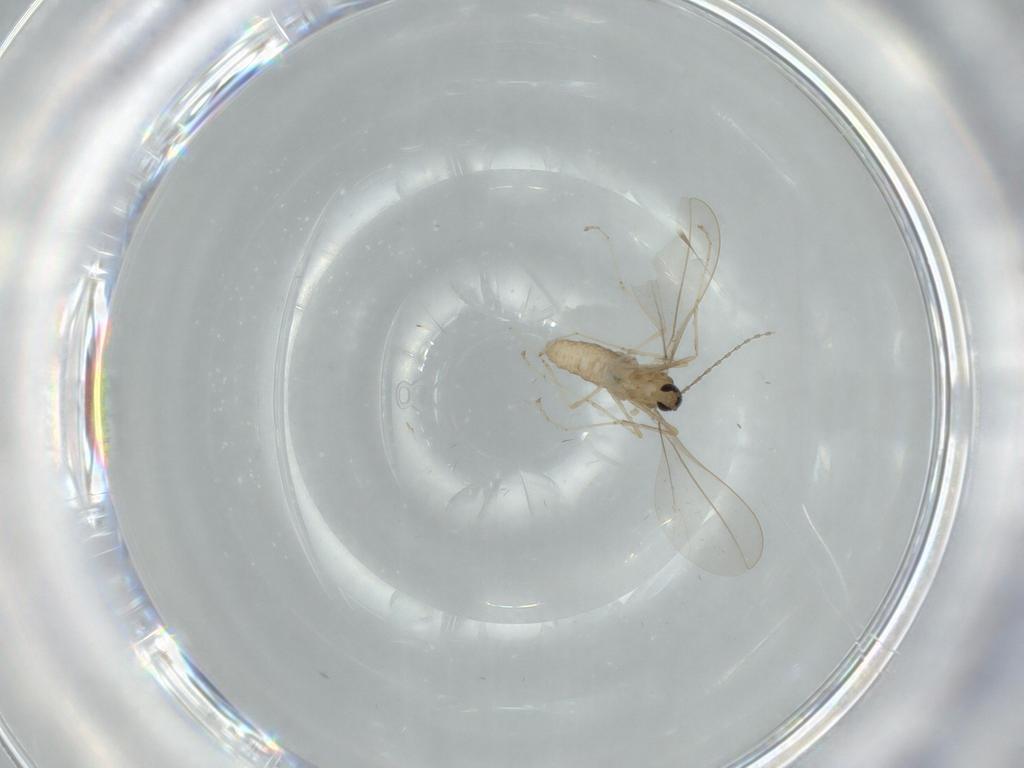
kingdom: Animalia
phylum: Arthropoda
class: Insecta
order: Diptera
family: Cecidomyiidae
